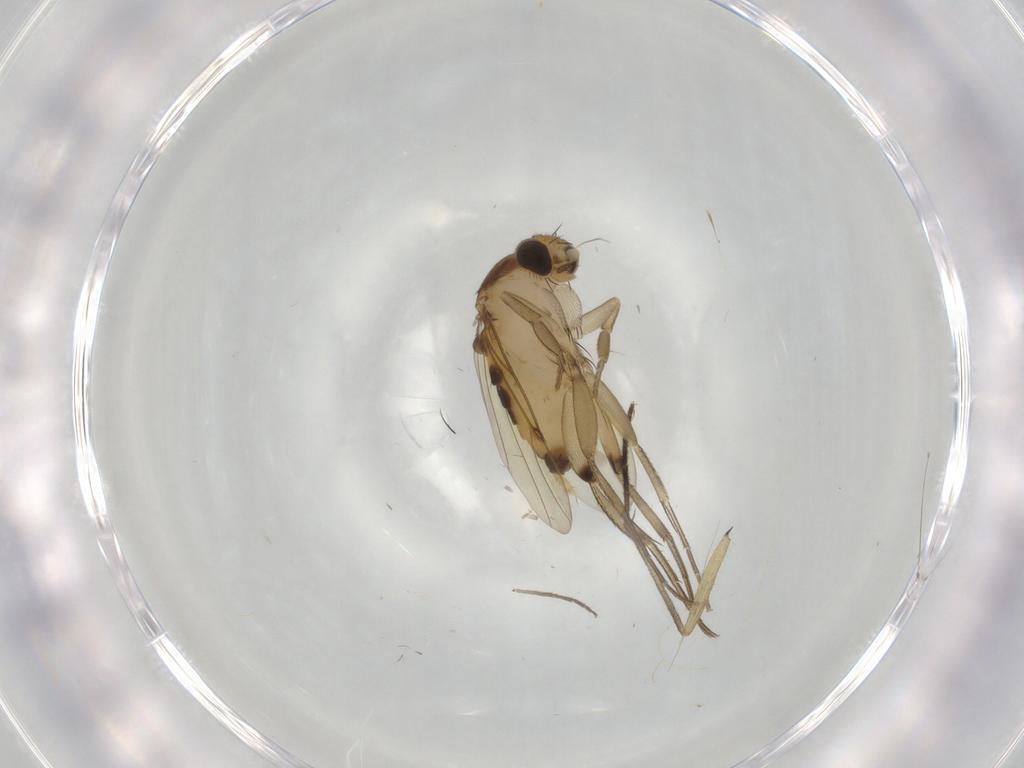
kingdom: Animalia
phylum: Arthropoda
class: Insecta
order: Diptera
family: Phoridae
